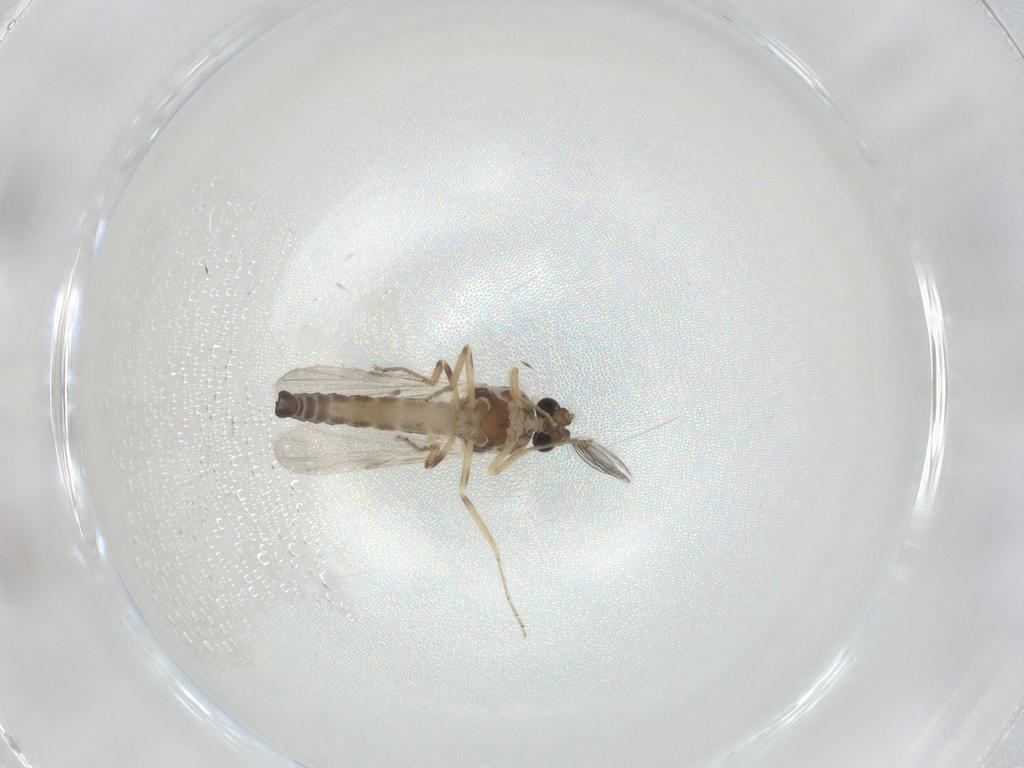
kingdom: Animalia
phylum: Arthropoda
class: Insecta
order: Diptera
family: Ceratopogonidae
